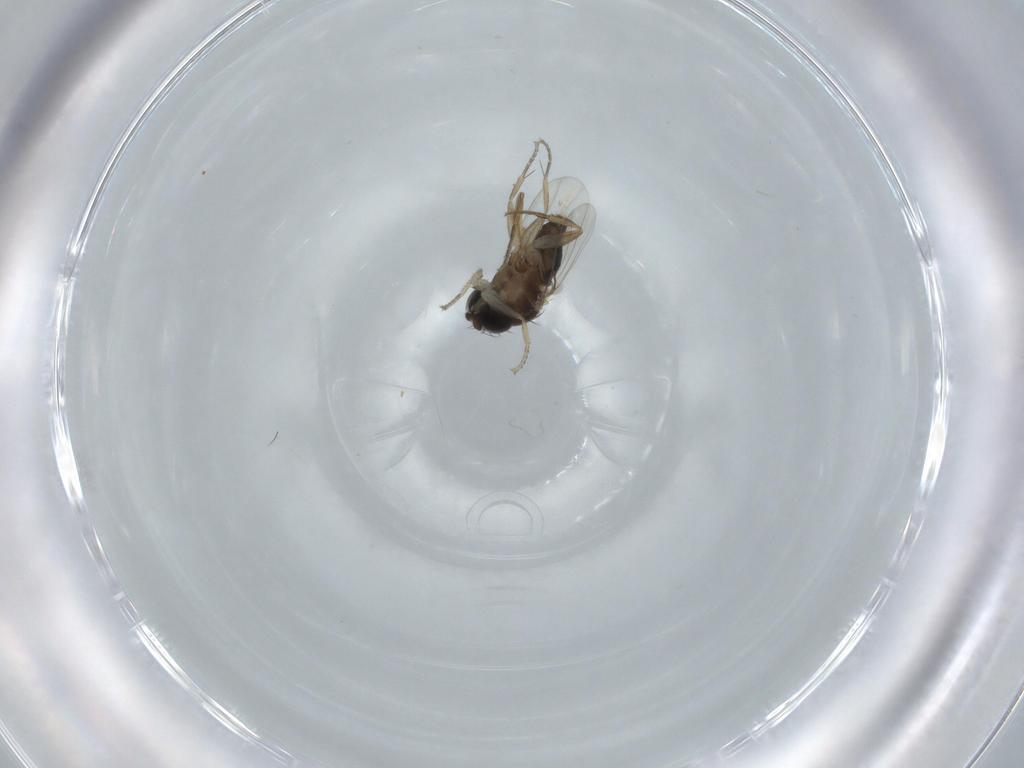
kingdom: Animalia
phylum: Arthropoda
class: Insecta
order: Diptera
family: Cecidomyiidae
